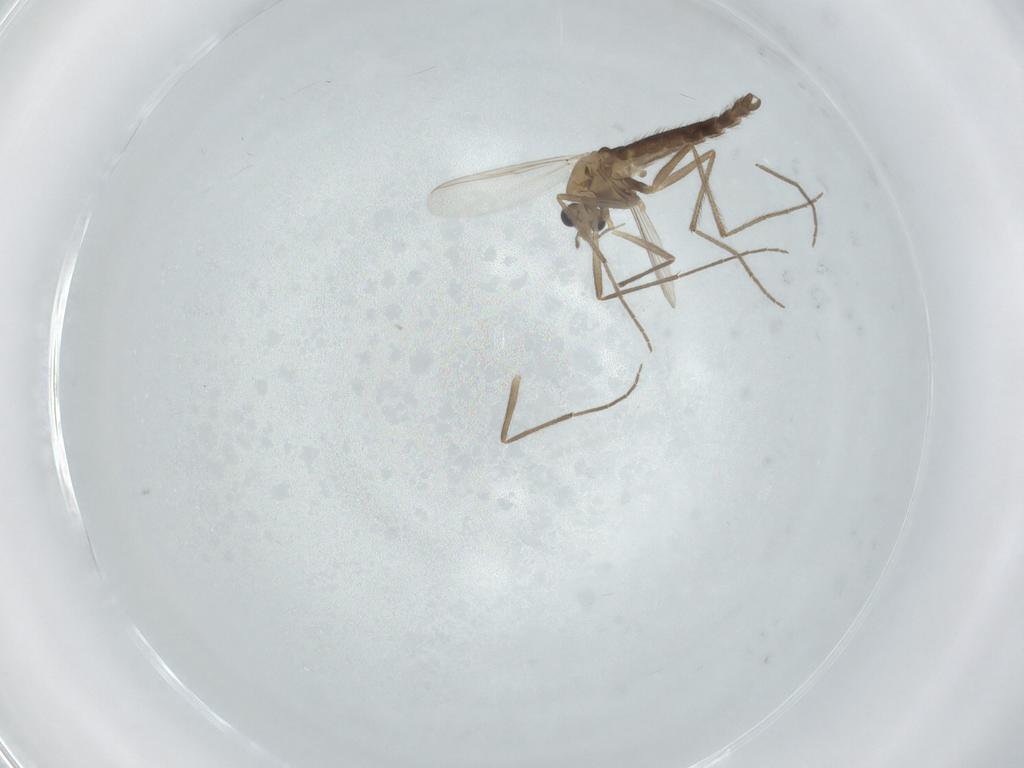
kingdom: Animalia
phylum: Arthropoda
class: Insecta
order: Diptera
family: Chironomidae
